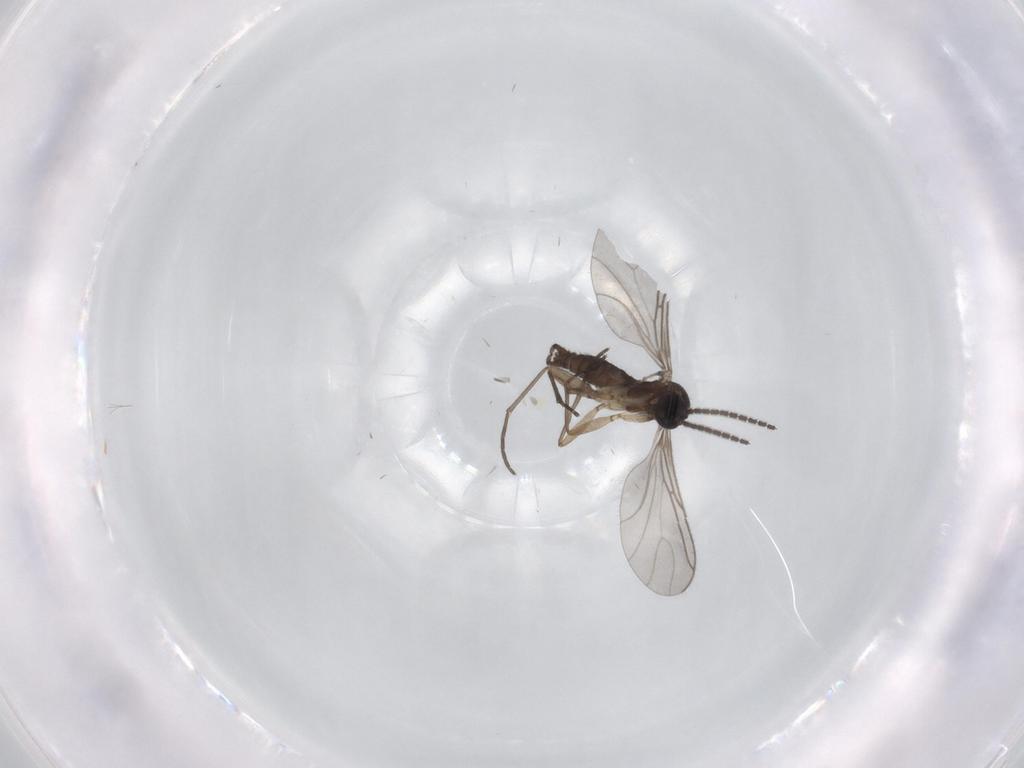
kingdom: Animalia
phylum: Arthropoda
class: Insecta
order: Diptera
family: Sciaridae
